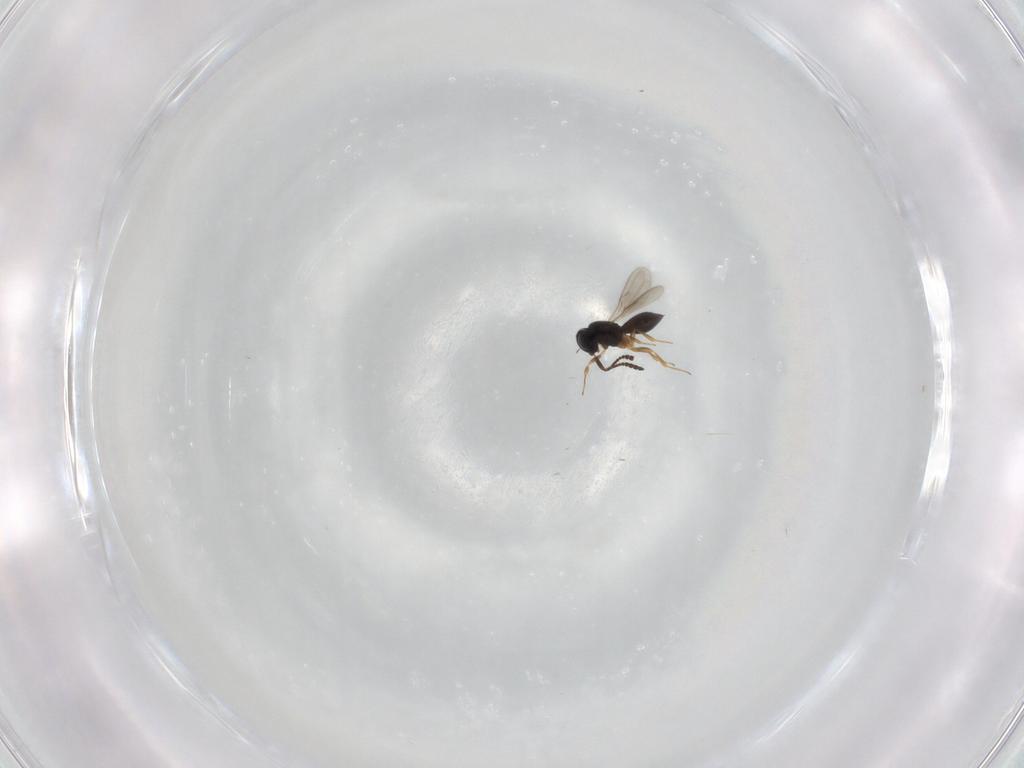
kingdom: Animalia
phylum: Arthropoda
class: Insecta
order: Hymenoptera
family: Scelionidae
